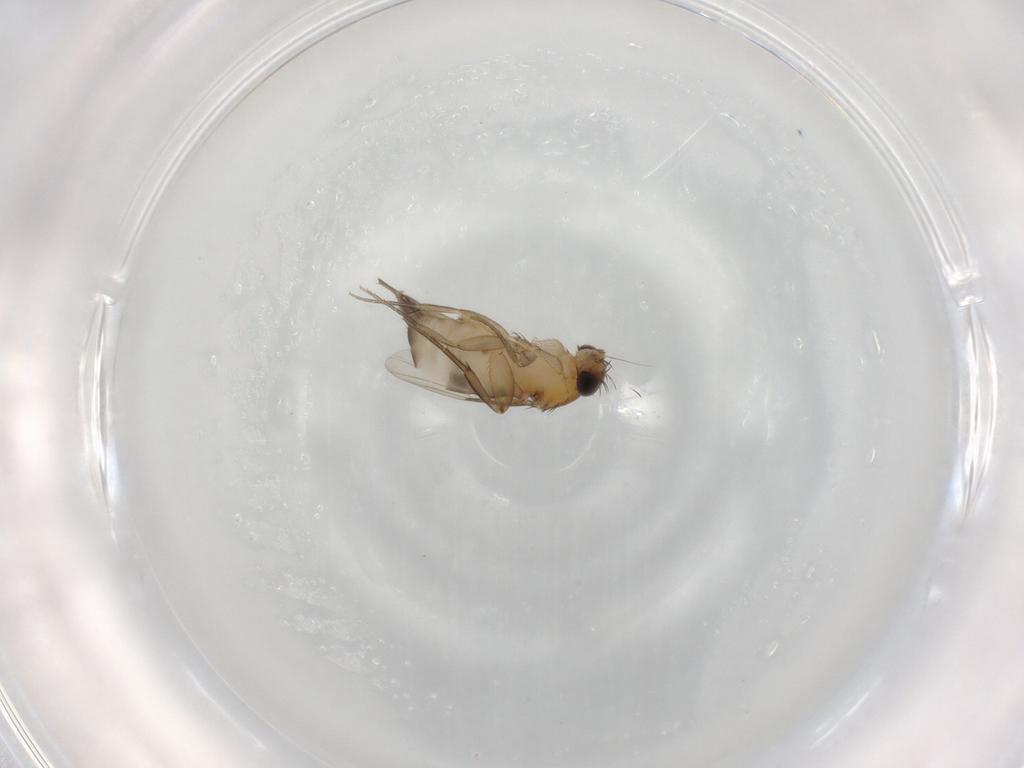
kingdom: Animalia
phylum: Arthropoda
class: Insecta
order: Diptera
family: Phoridae
